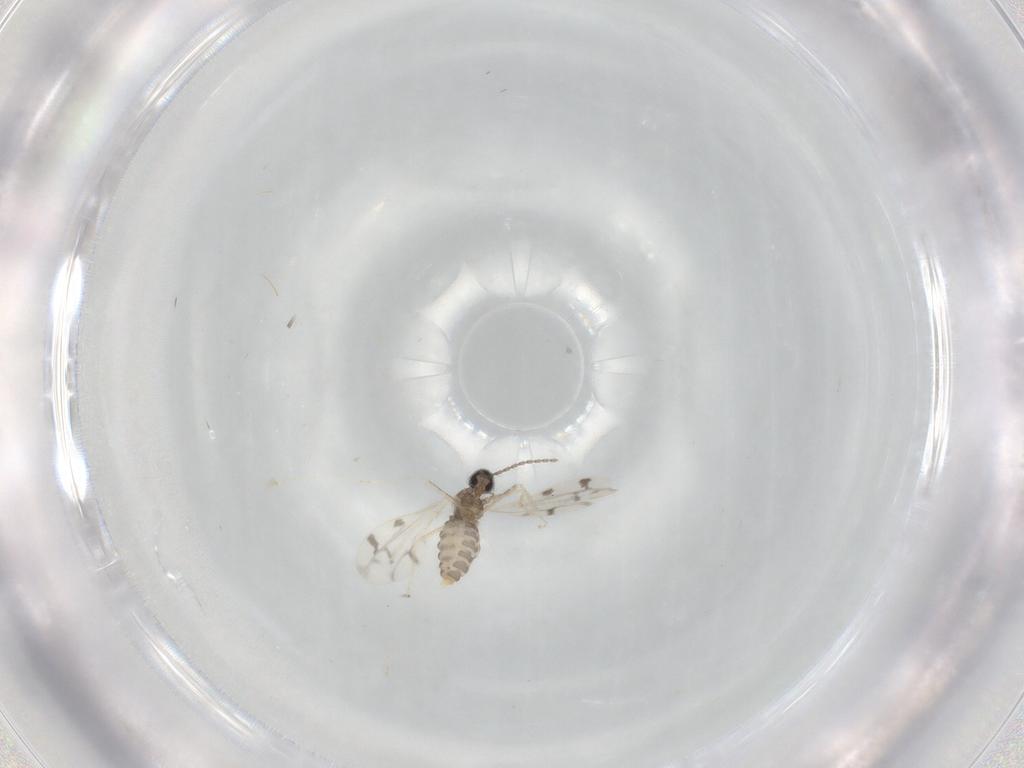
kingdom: Animalia
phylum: Arthropoda
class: Insecta
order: Diptera
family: Cecidomyiidae
